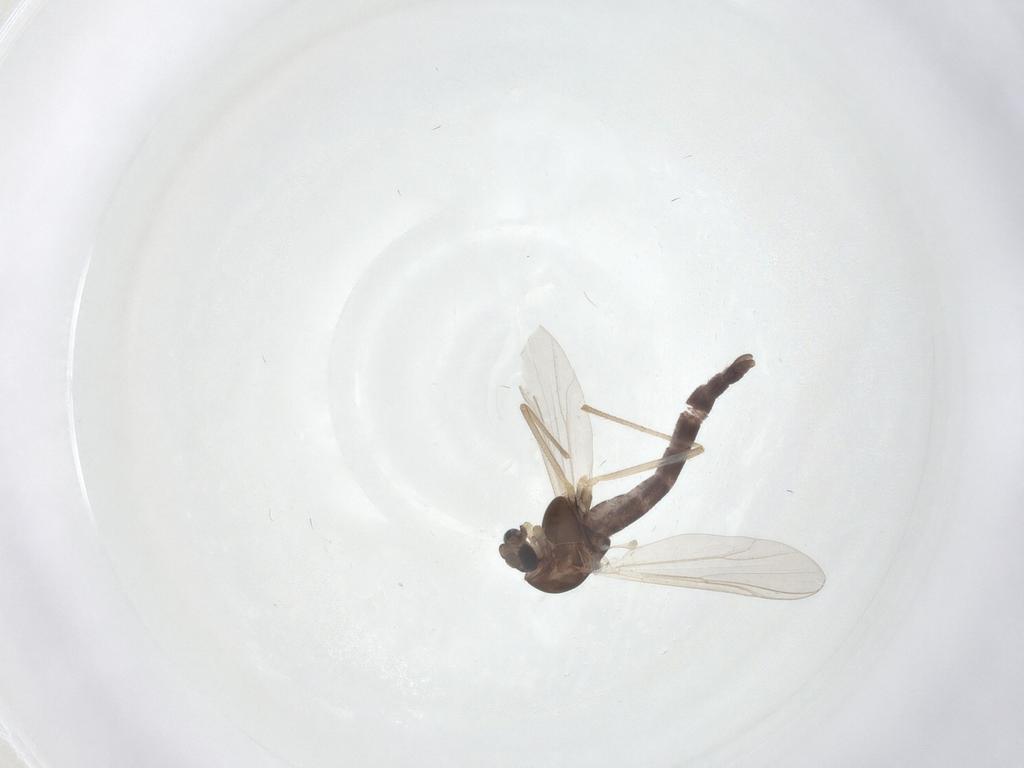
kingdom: Animalia
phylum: Arthropoda
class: Insecta
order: Diptera
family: Chironomidae
